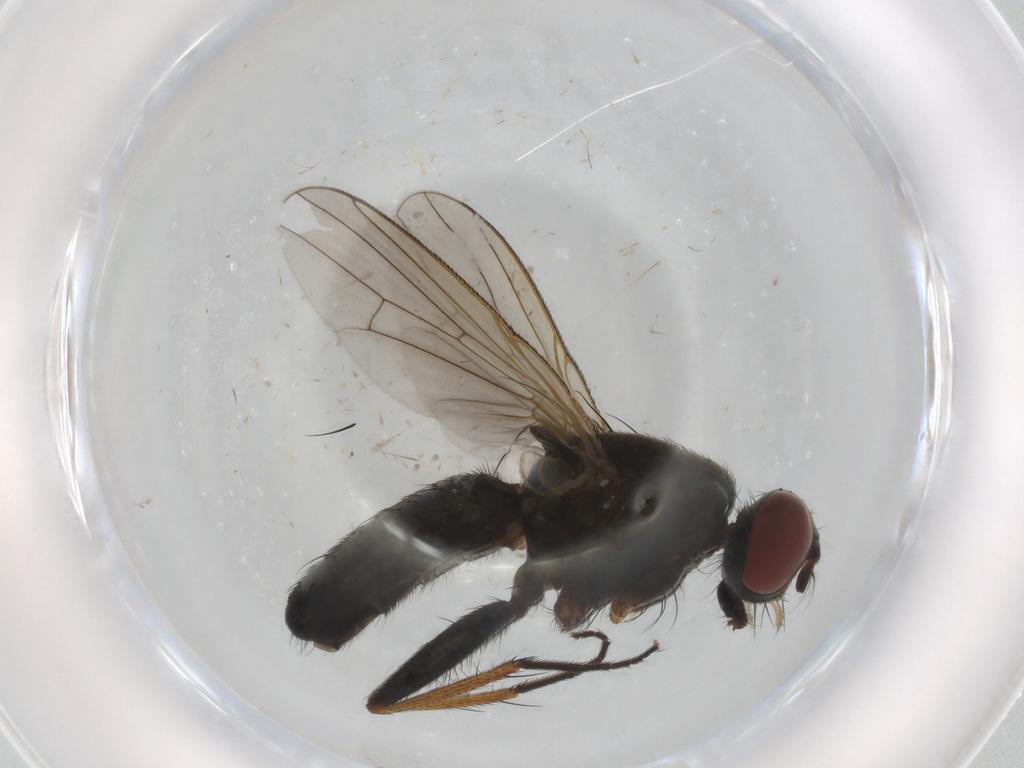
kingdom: Animalia
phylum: Arthropoda
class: Insecta
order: Diptera
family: Muscidae
